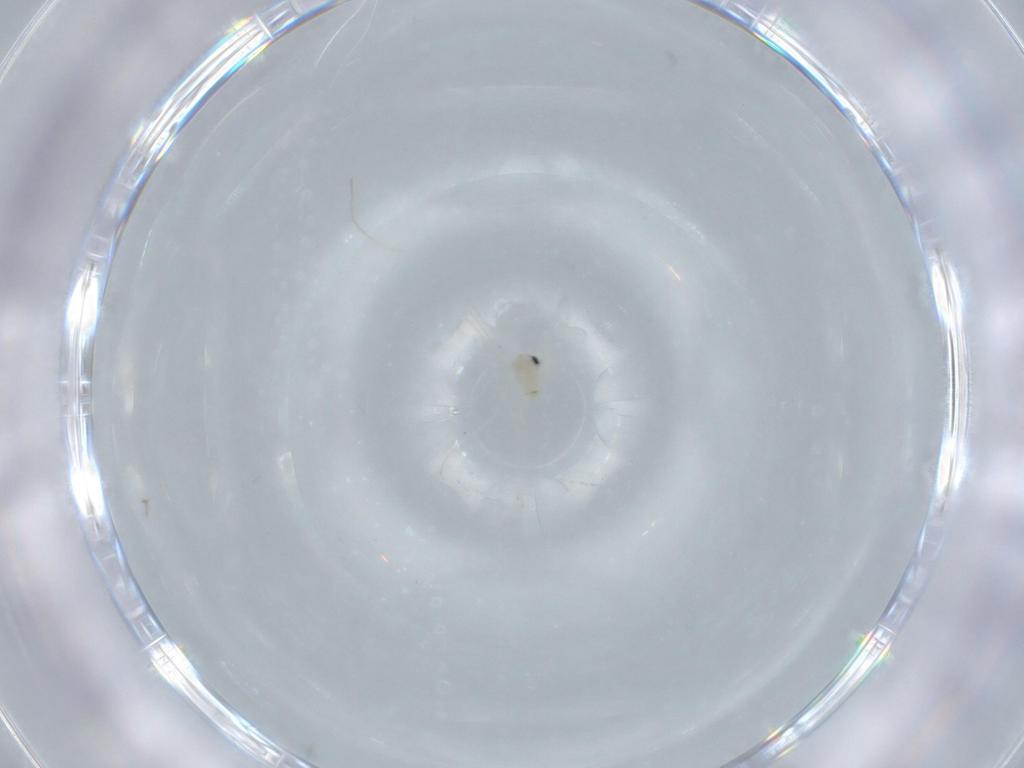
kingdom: Animalia
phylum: Arthropoda
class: Insecta
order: Diptera
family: Cecidomyiidae
